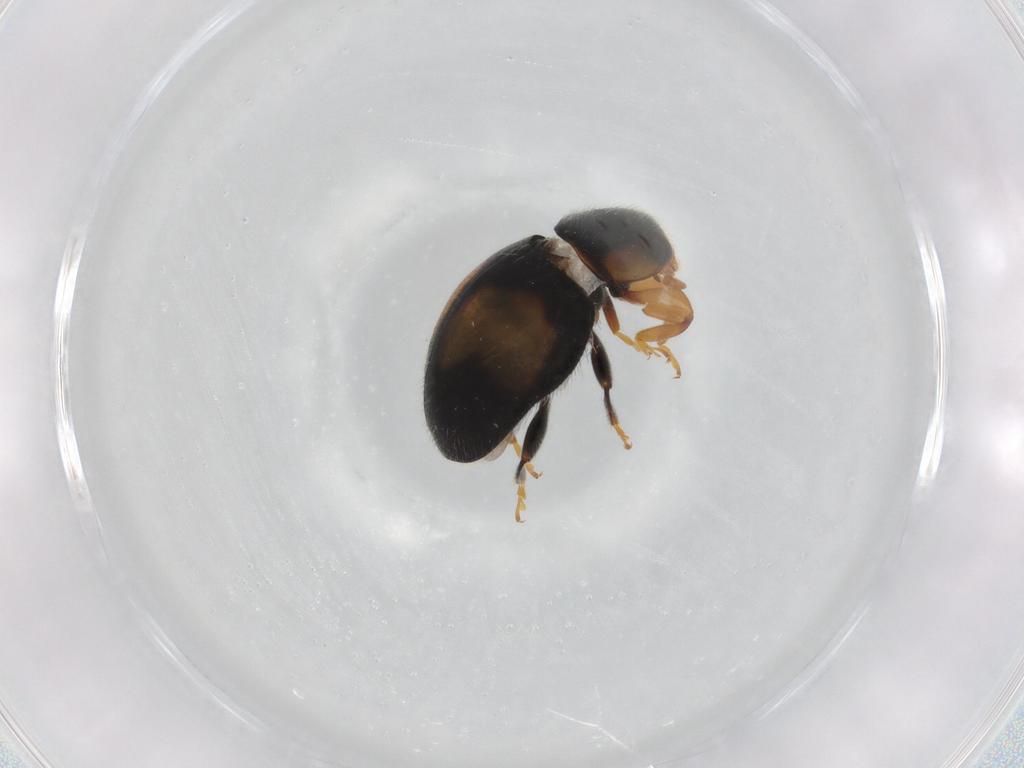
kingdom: Animalia
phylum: Arthropoda
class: Insecta
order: Coleoptera
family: Coccinellidae
